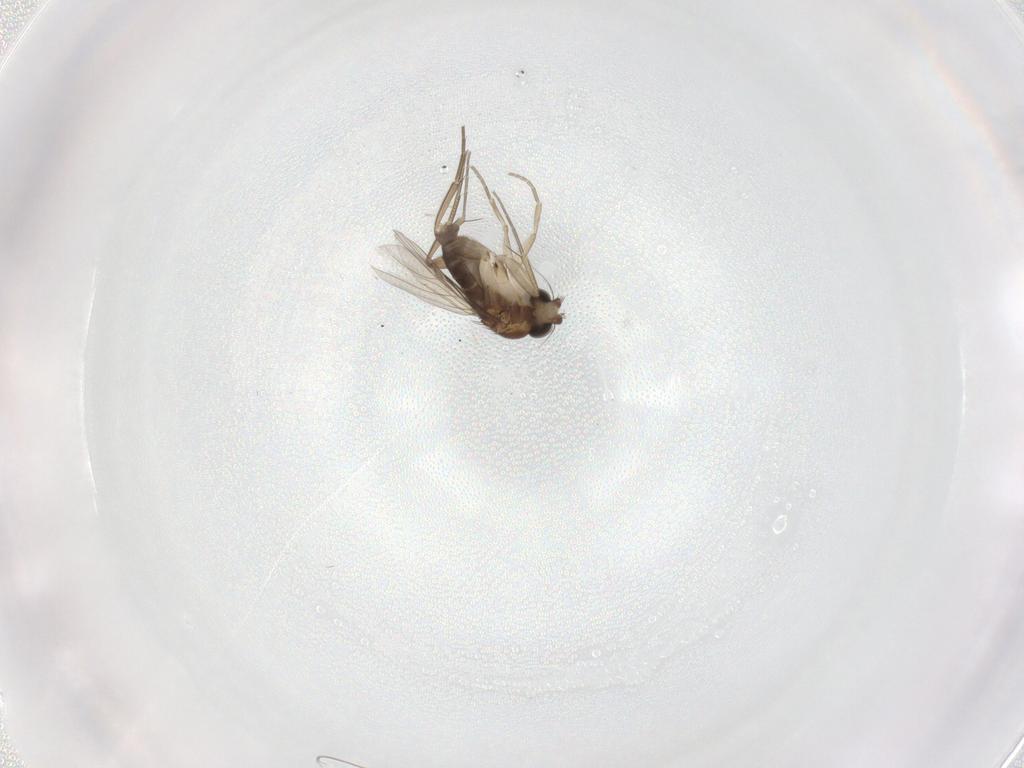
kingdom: Animalia
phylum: Arthropoda
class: Insecta
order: Diptera
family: Phoridae
